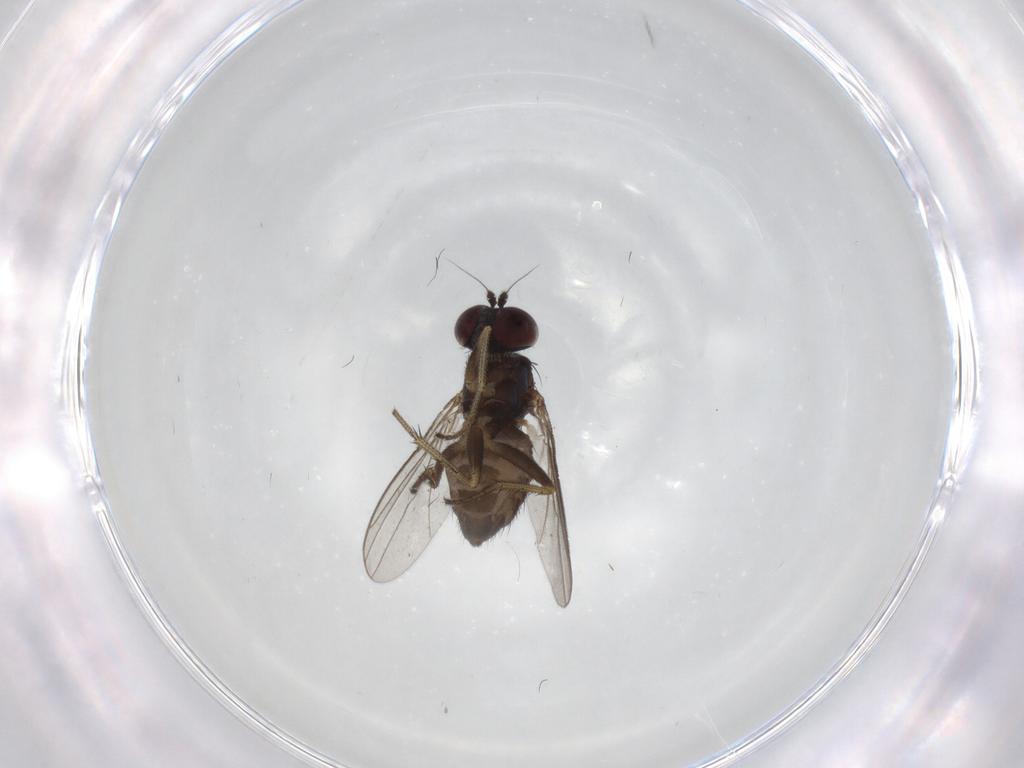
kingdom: Animalia
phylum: Arthropoda
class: Insecta
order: Diptera
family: Dolichopodidae
